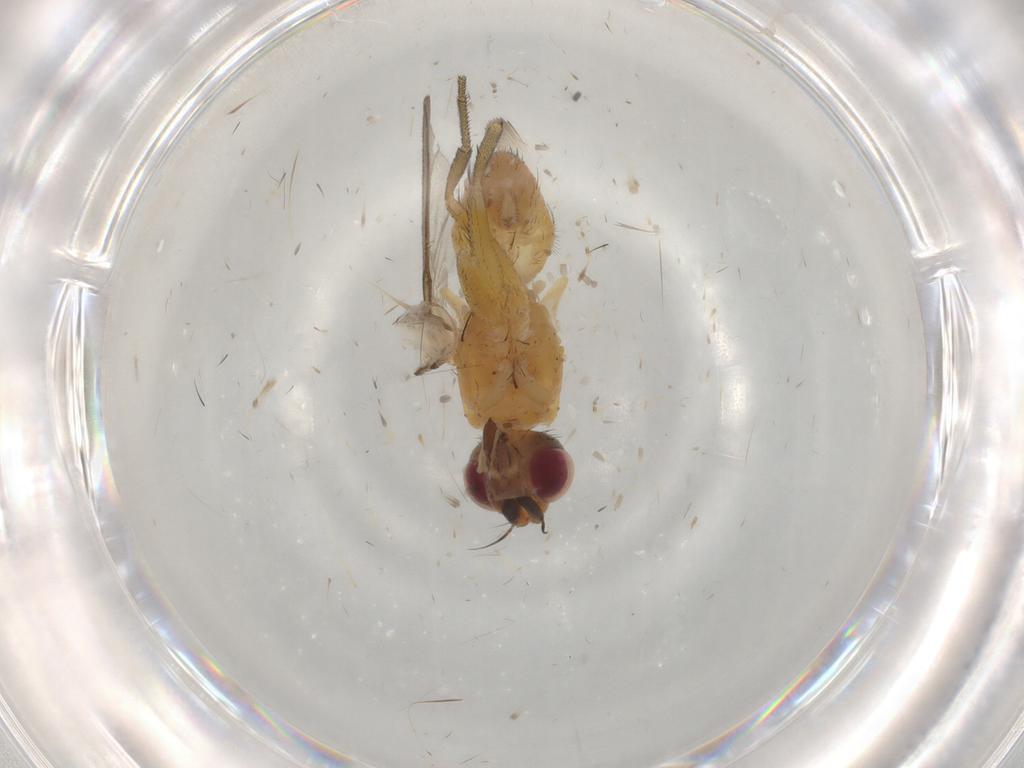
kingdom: Animalia
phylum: Arthropoda
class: Insecta
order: Diptera
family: Muscidae
